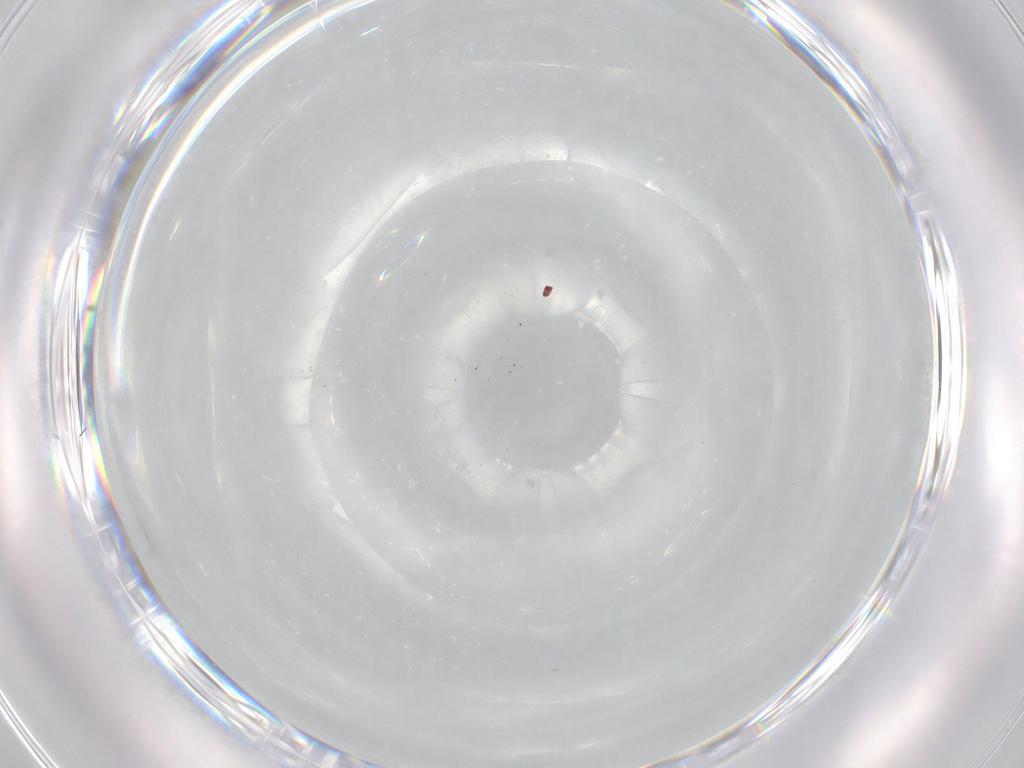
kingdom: Animalia
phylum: Arthropoda
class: Insecta
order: Diptera
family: Cecidomyiidae
